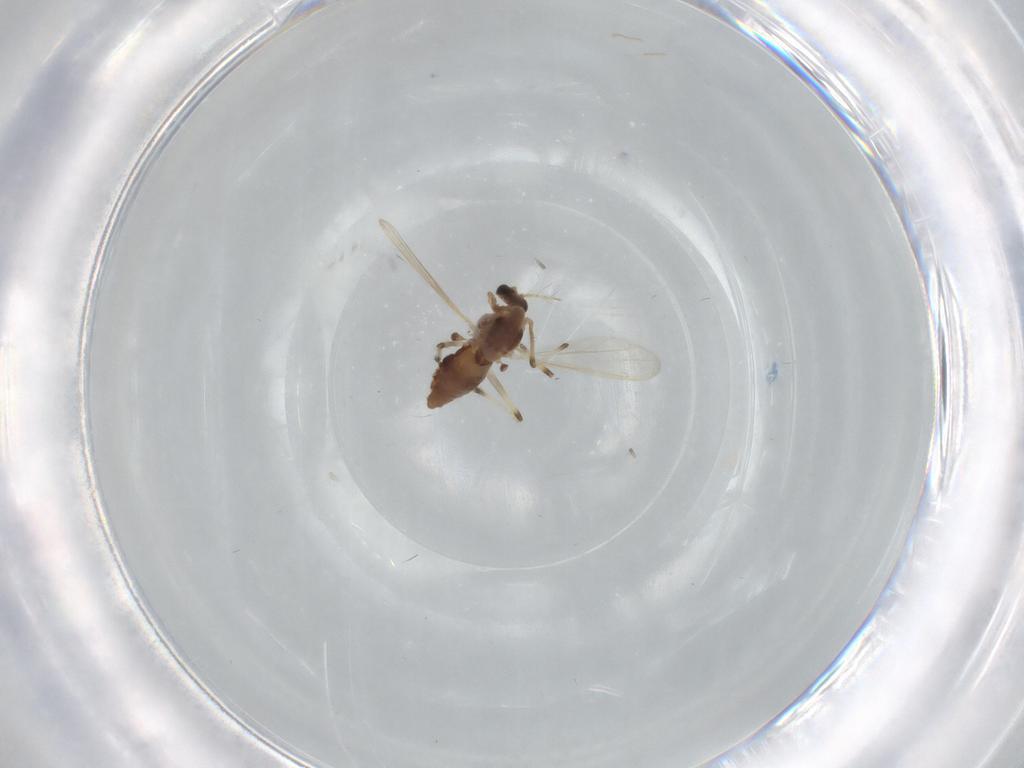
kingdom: Animalia
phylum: Arthropoda
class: Insecta
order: Diptera
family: Chironomidae
